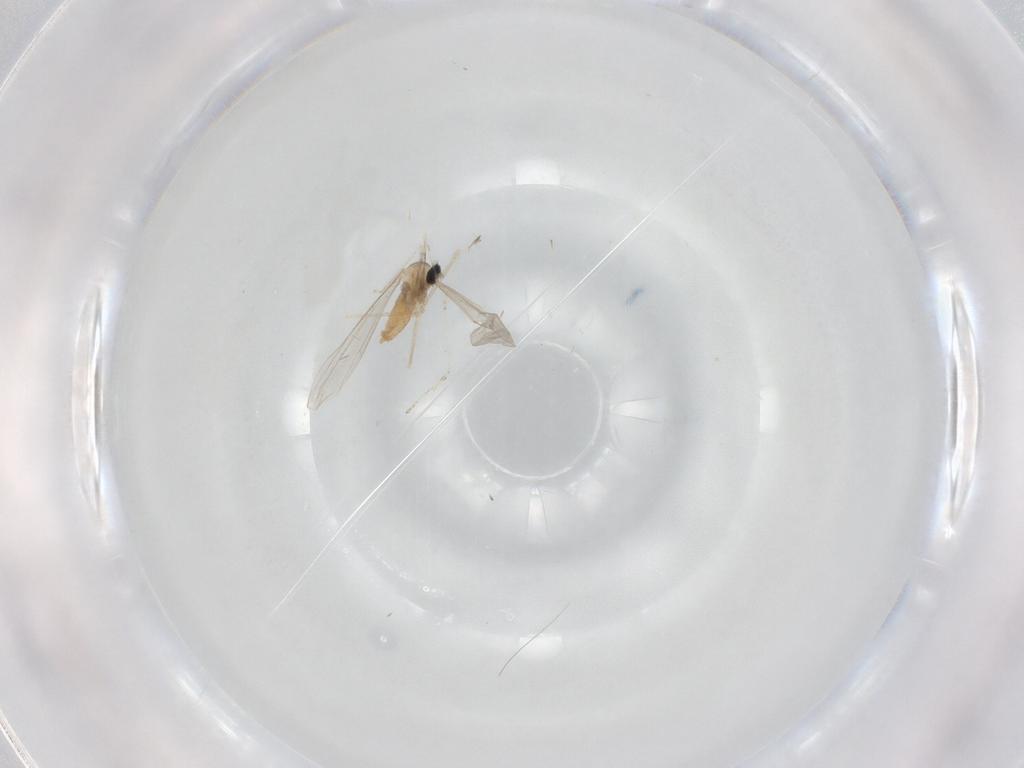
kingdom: Animalia
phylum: Arthropoda
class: Insecta
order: Diptera
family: Cecidomyiidae
